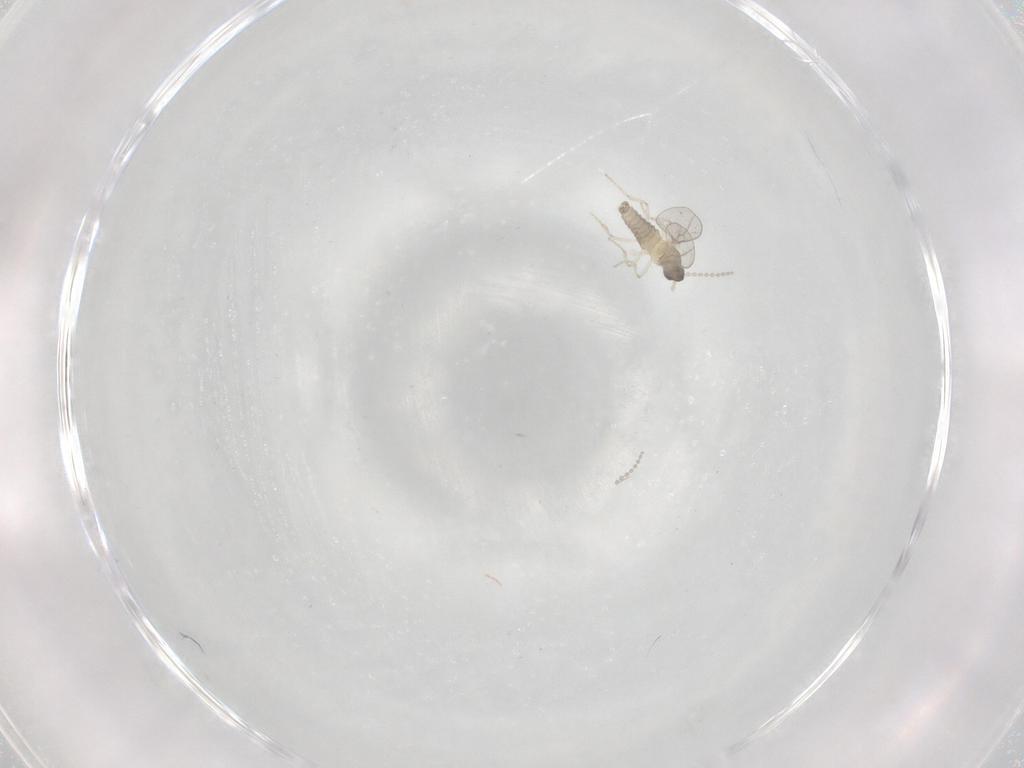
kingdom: Animalia
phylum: Arthropoda
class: Insecta
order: Diptera
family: Cecidomyiidae
